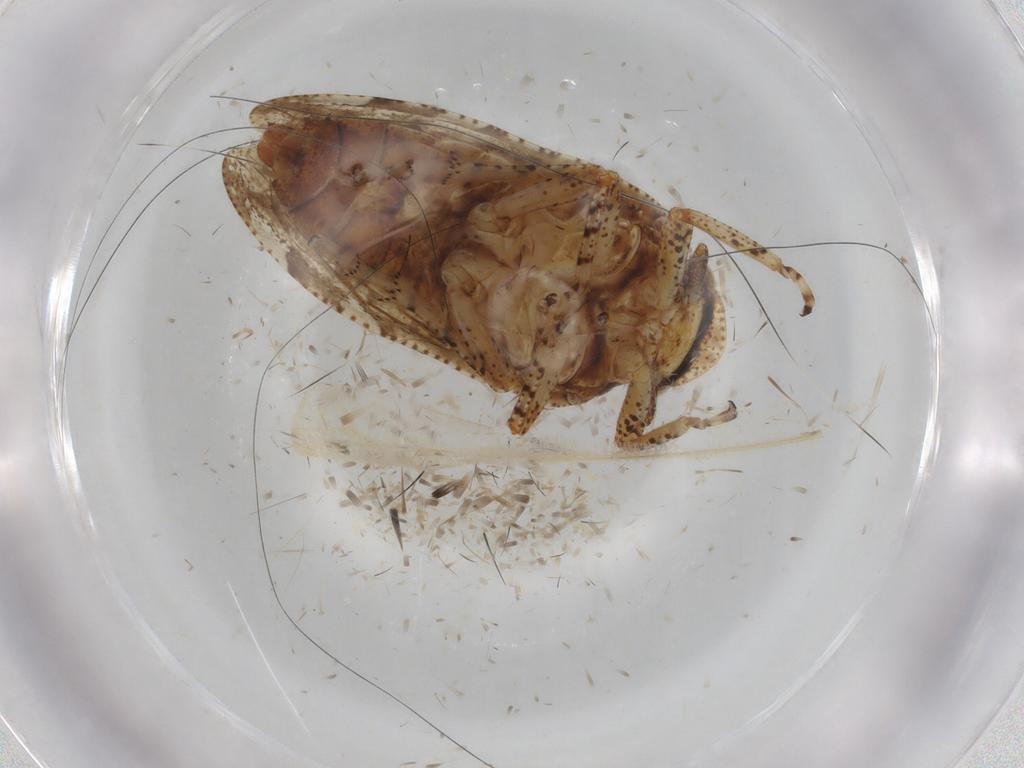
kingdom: Animalia
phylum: Arthropoda
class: Insecta
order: Hemiptera
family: Tettigometridae
